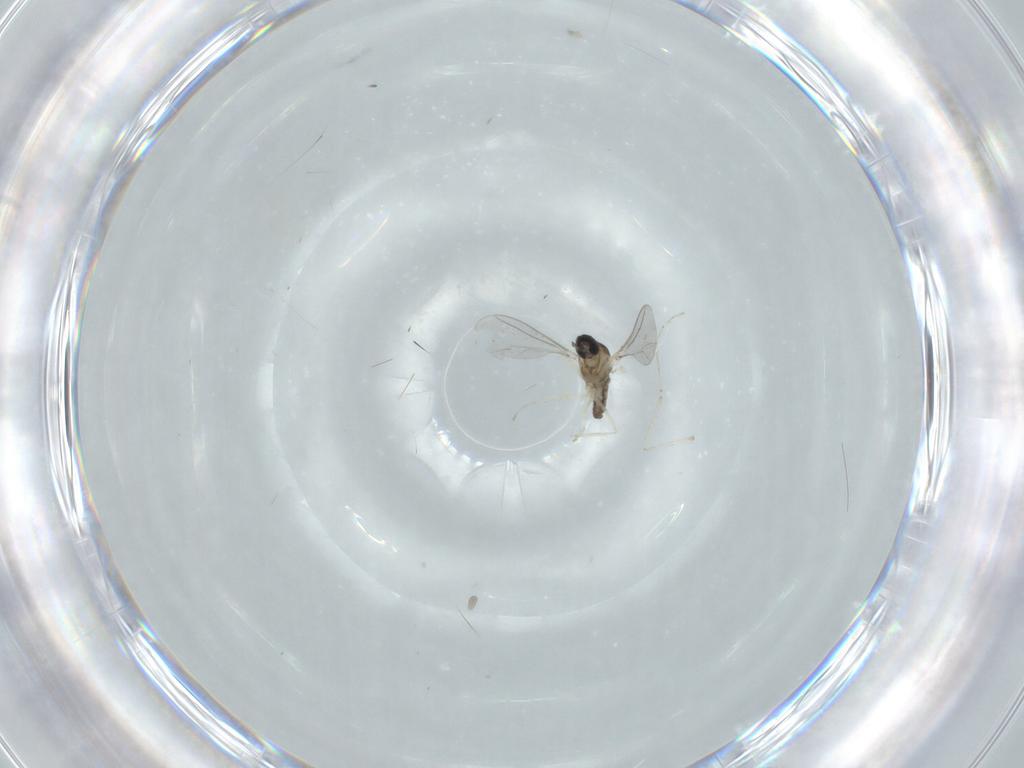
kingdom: Animalia
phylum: Arthropoda
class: Insecta
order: Diptera
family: Cecidomyiidae
